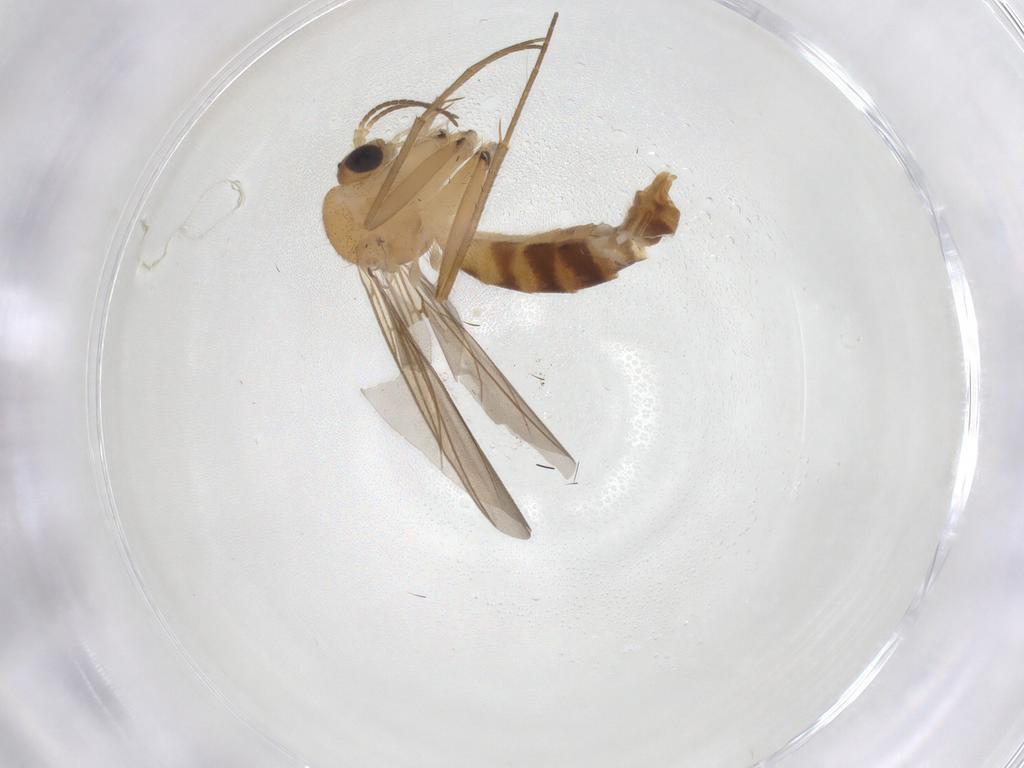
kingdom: Animalia
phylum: Arthropoda
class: Insecta
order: Diptera
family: Mycetophilidae
